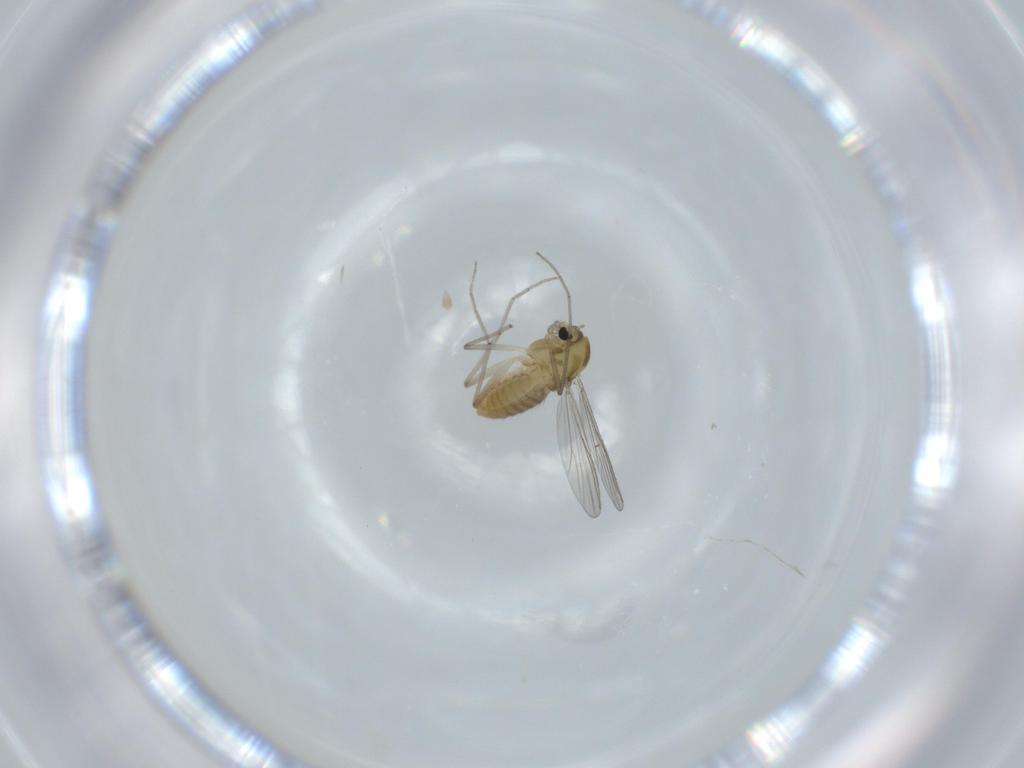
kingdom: Animalia
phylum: Arthropoda
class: Insecta
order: Diptera
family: Chironomidae
